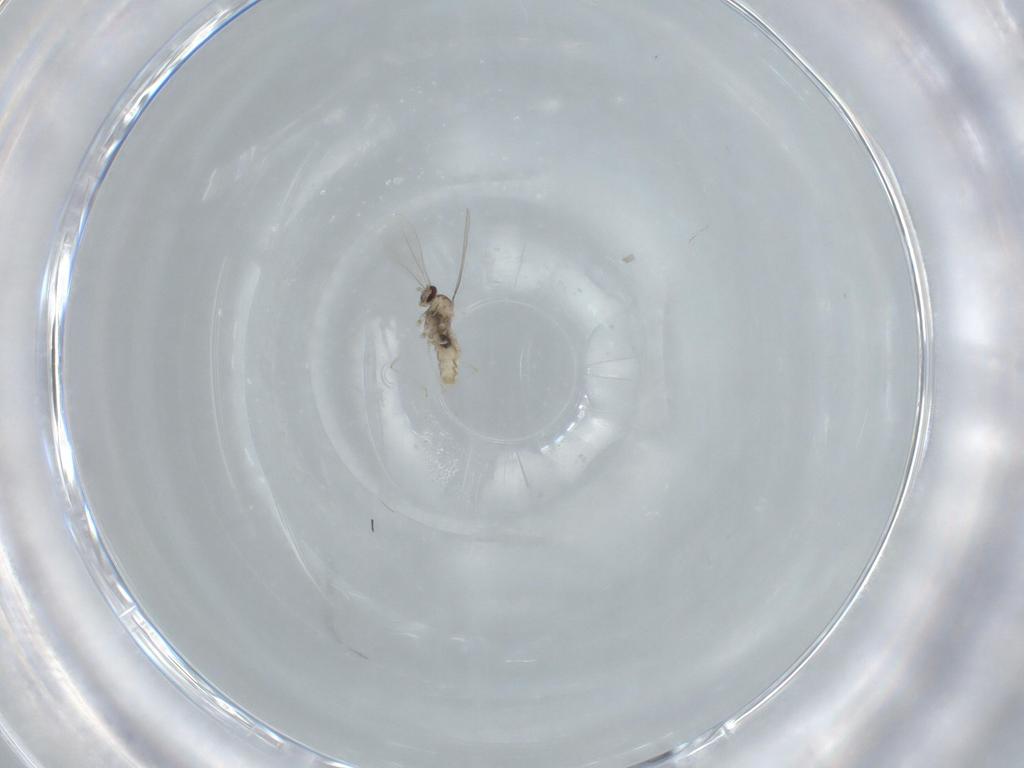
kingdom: Animalia
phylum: Arthropoda
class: Insecta
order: Diptera
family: Cecidomyiidae
